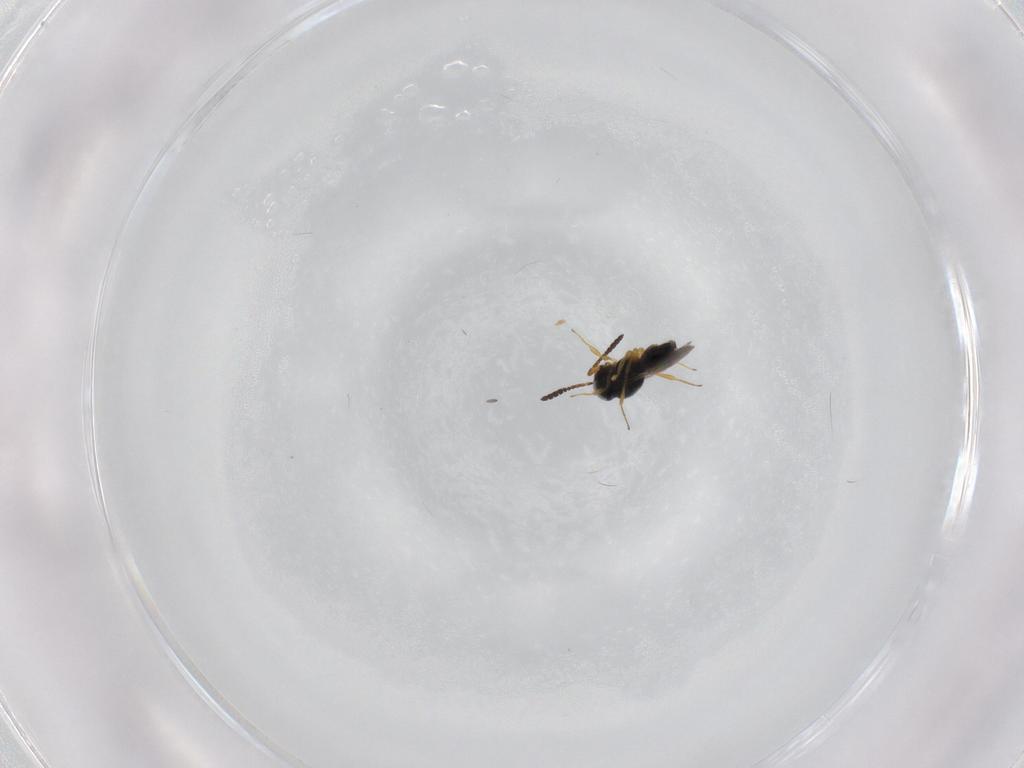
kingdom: Animalia
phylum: Arthropoda
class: Insecta
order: Hymenoptera
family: Scelionidae
